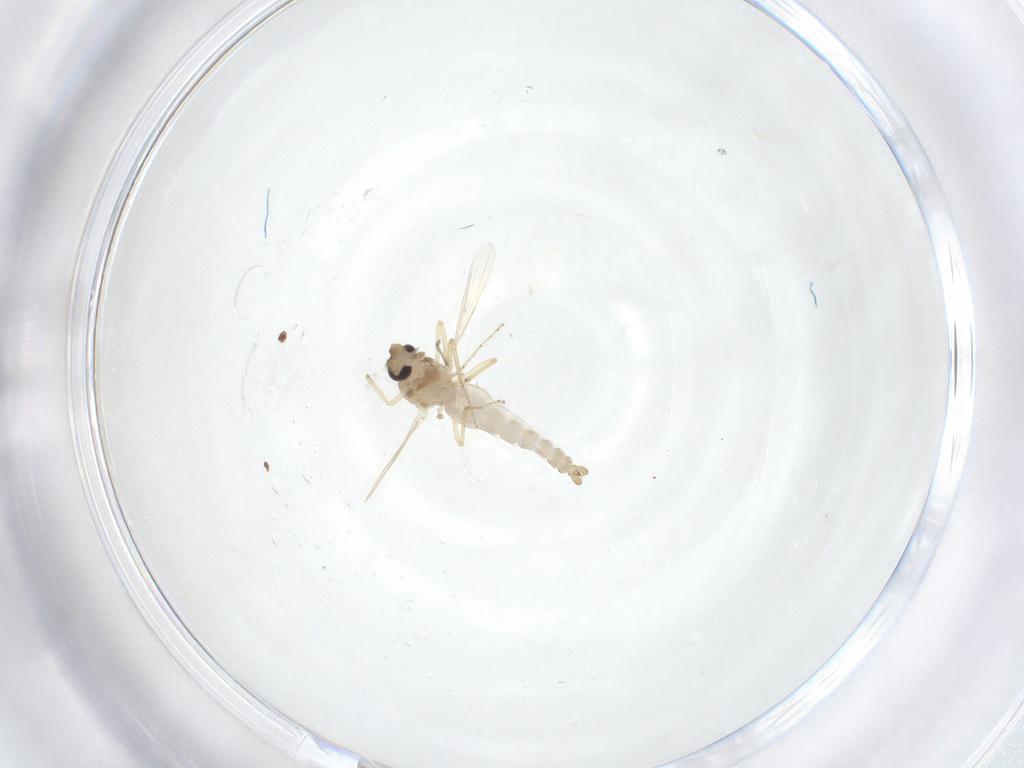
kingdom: Animalia
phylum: Arthropoda
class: Insecta
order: Diptera
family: Ceratopogonidae
